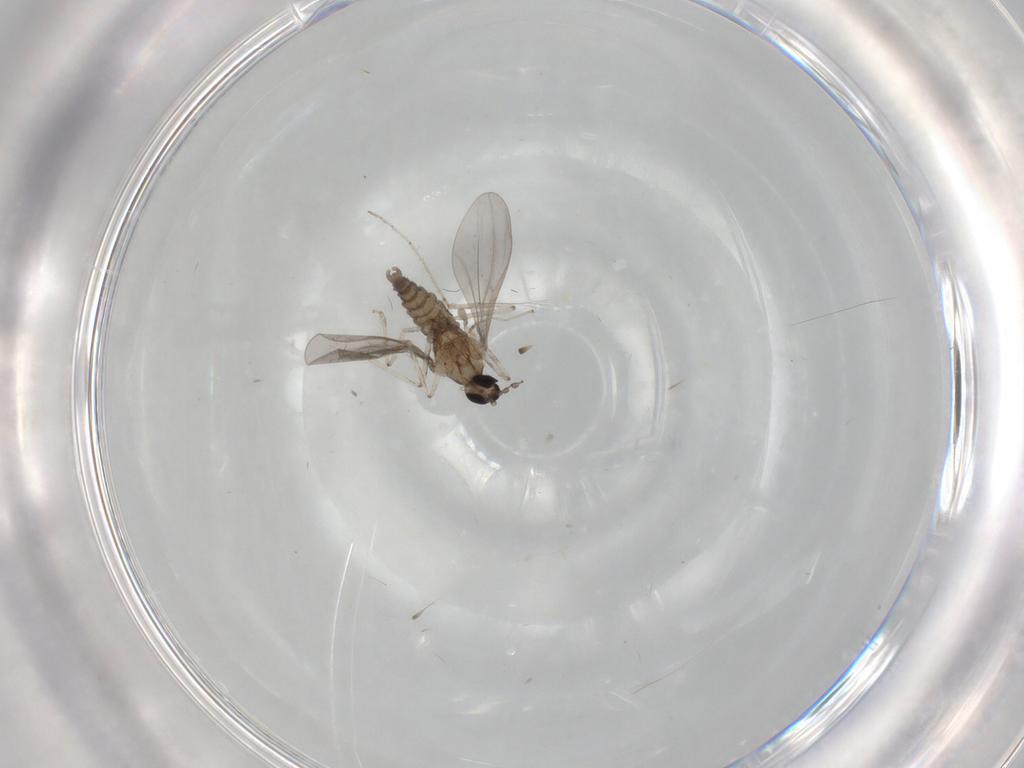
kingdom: Animalia
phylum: Arthropoda
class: Insecta
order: Diptera
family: Cecidomyiidae
